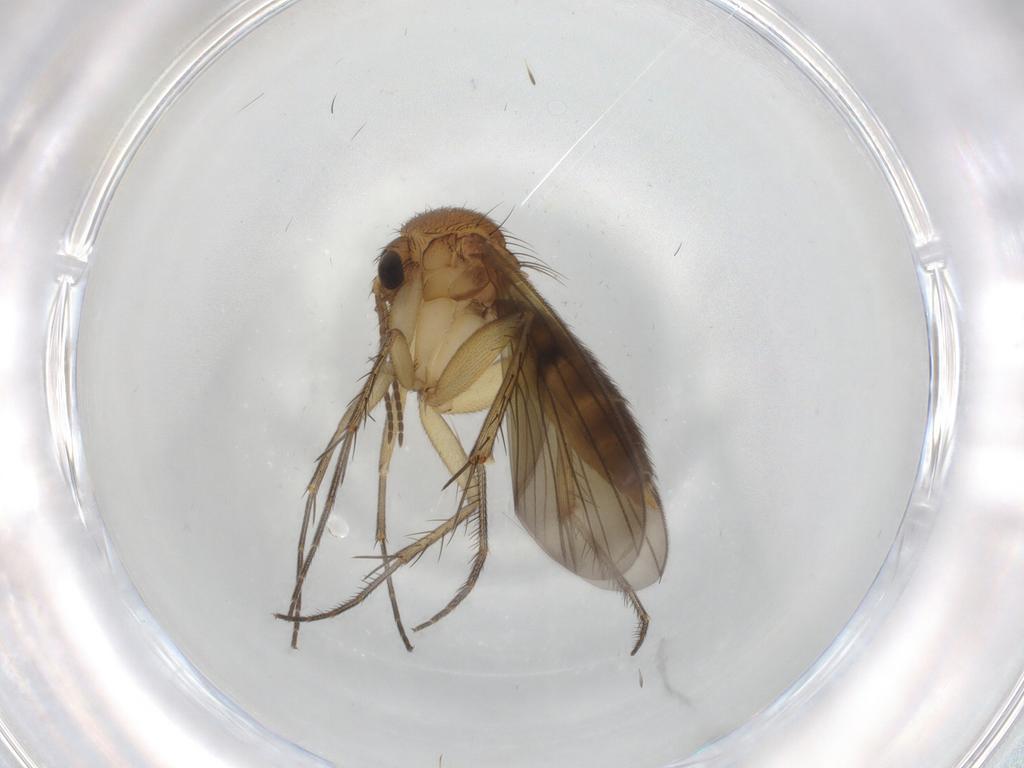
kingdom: Animalia
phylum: Arthropoda
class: Insecta
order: Diptera
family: Mycetophilidae
